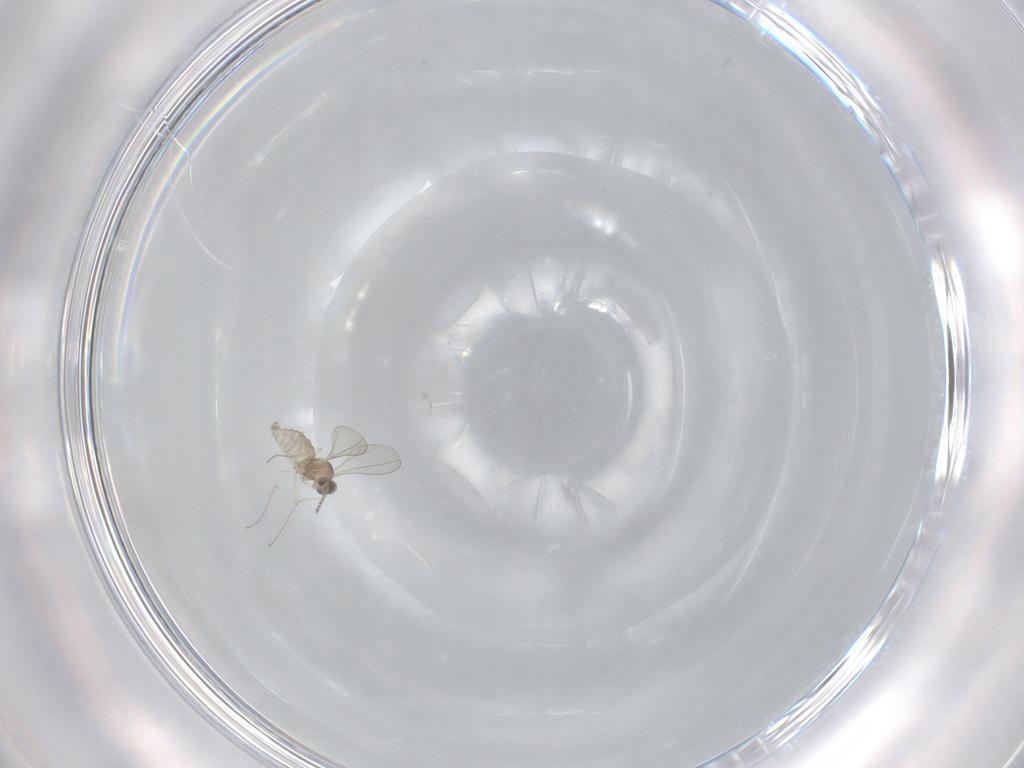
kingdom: Animalia
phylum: Arthropoda
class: Insecta
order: Diptera
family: Cecidomyiidae
